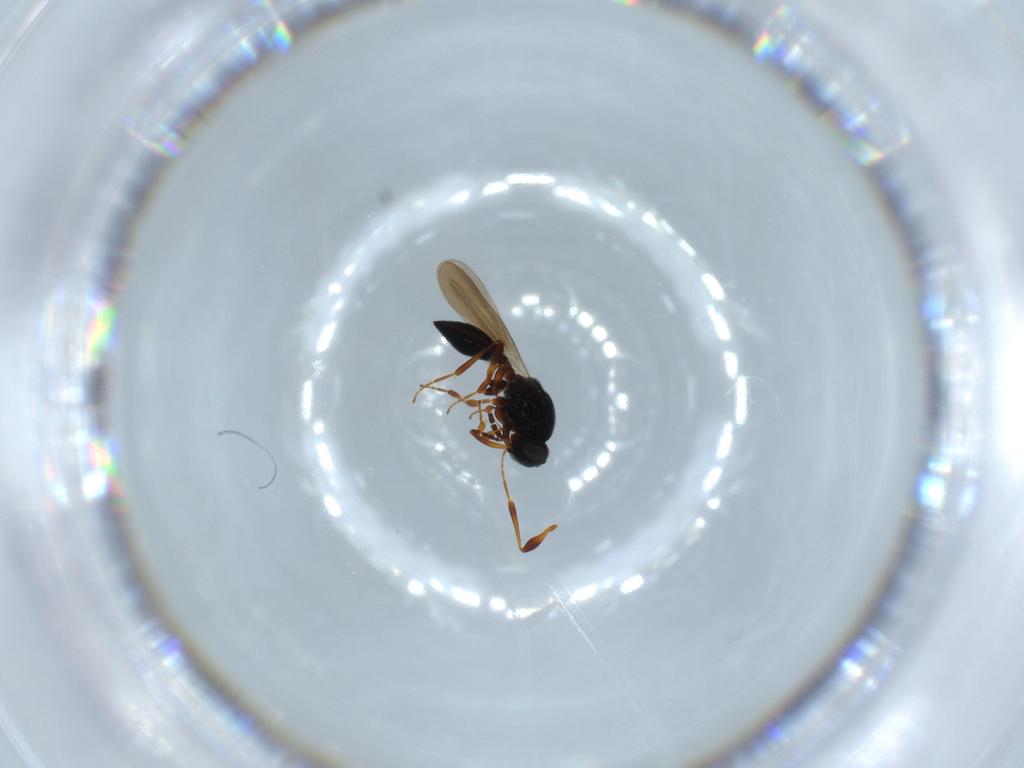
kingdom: Animalia
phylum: Arthropoda
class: Insecta
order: Hymenoptera
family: Platygastridae
